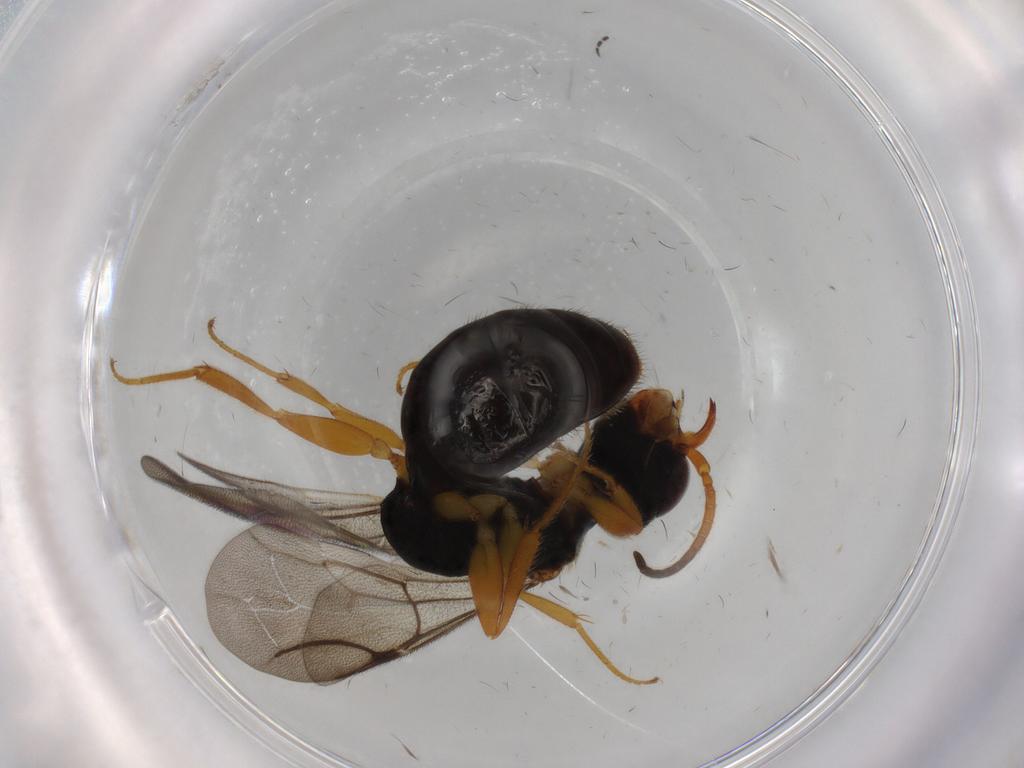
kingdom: Animalia
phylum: Arthropoda
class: Insecta
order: Hymenoptera
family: Bethylidae
